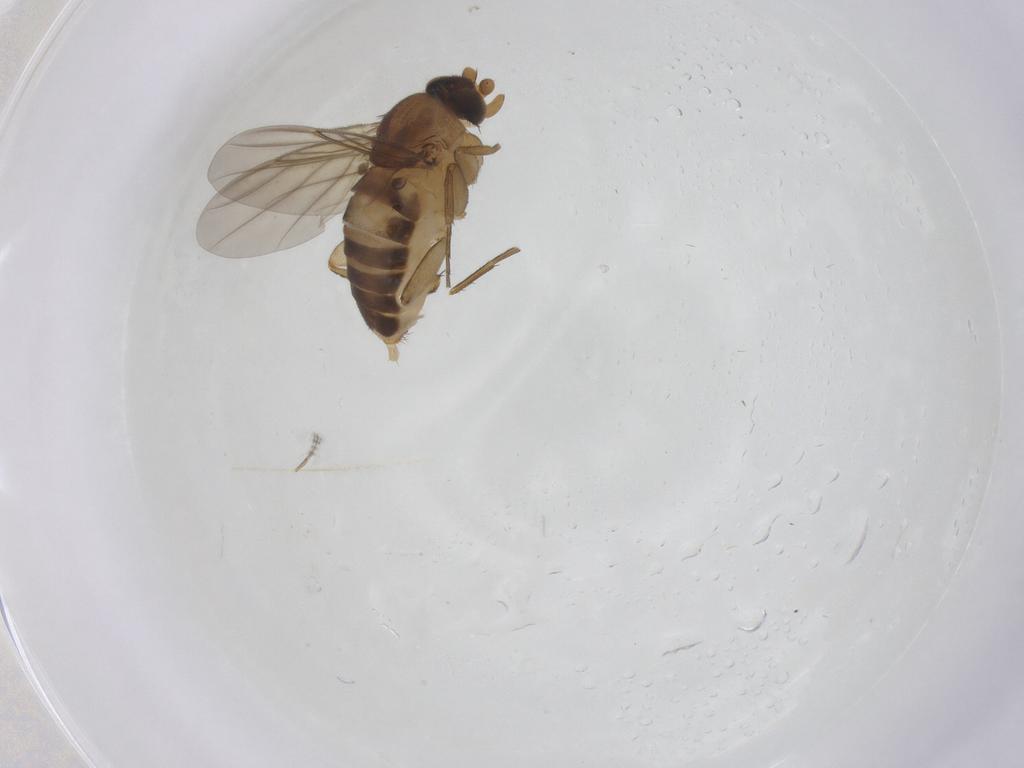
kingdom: Animalia
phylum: Arthropoda
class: Insecta
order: Diptera
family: Phoridae
